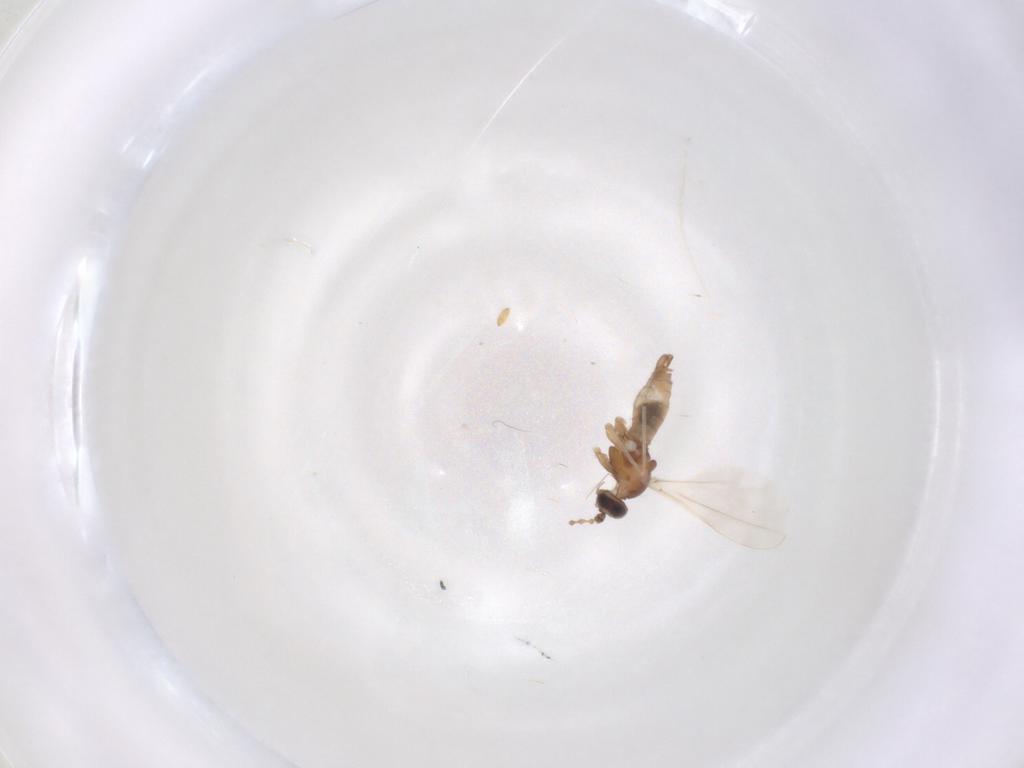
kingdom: Animalia
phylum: Arthropoda
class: Insecta
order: Diptera
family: Cecidomyiidae
